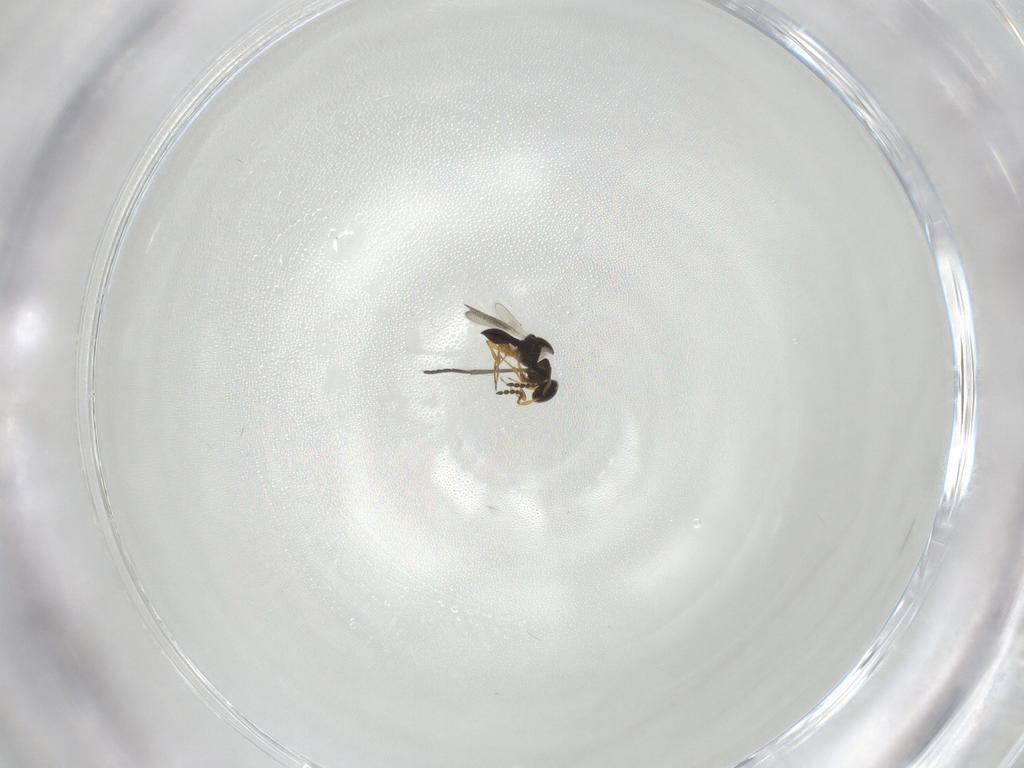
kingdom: Animalia
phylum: Arthropoda
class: Insecta
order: Hymenoptera
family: Platygastridae
